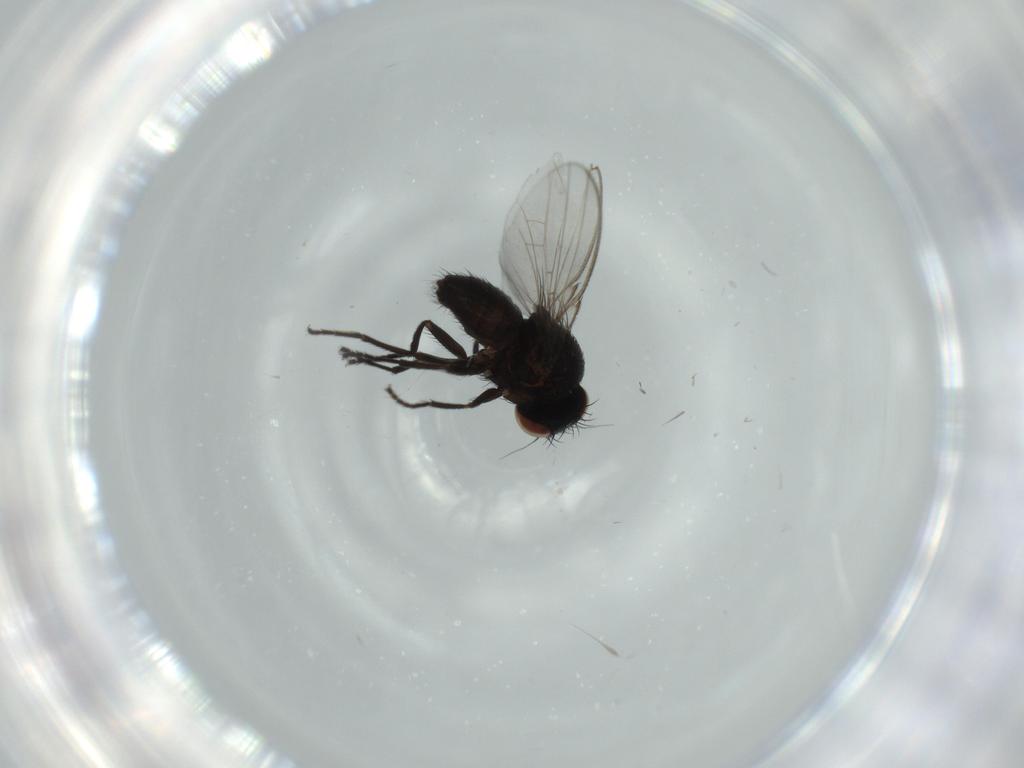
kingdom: Animalia
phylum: Arthropoda
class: Insecta
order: Diptera
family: Milichiidae
